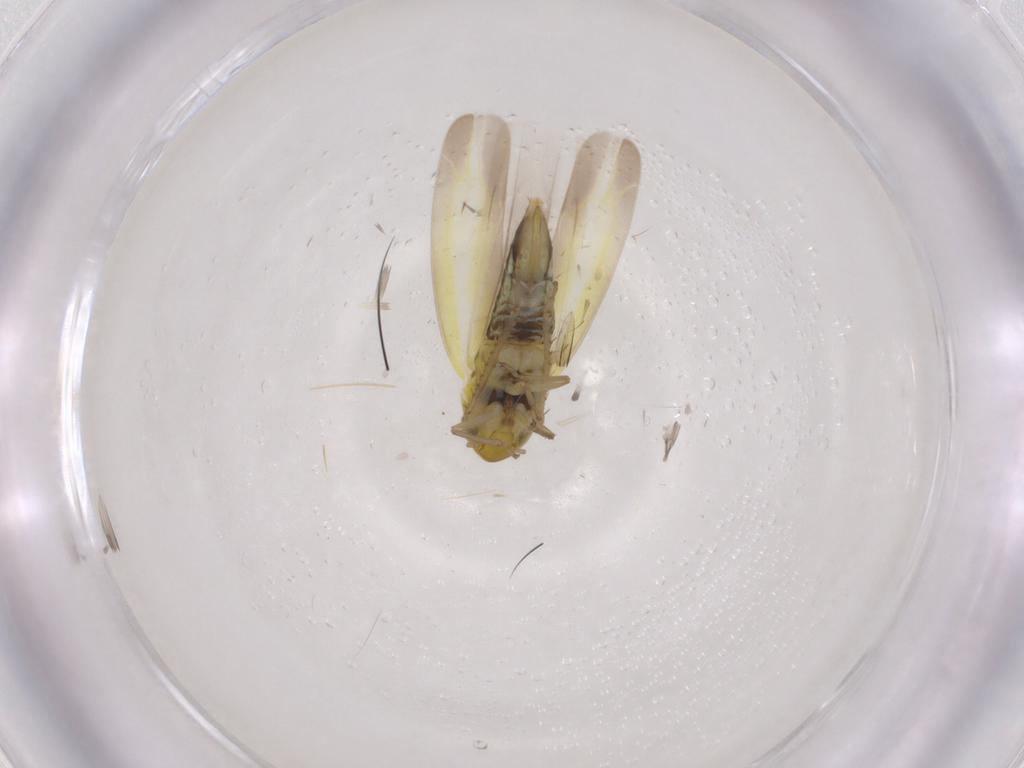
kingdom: Animalia
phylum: Arthropoda
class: Insecta
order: Hemiptera
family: Cicadellidae
